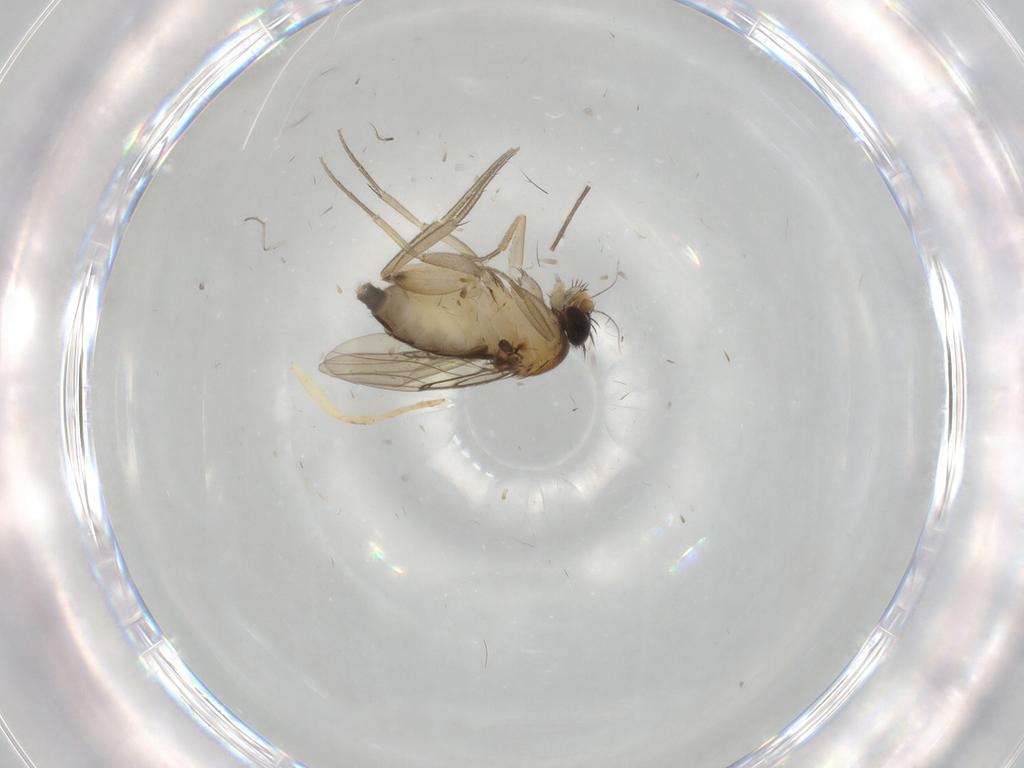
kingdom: Animalia
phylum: Arthropoda
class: Insecta
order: Diptera
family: Phoridae
